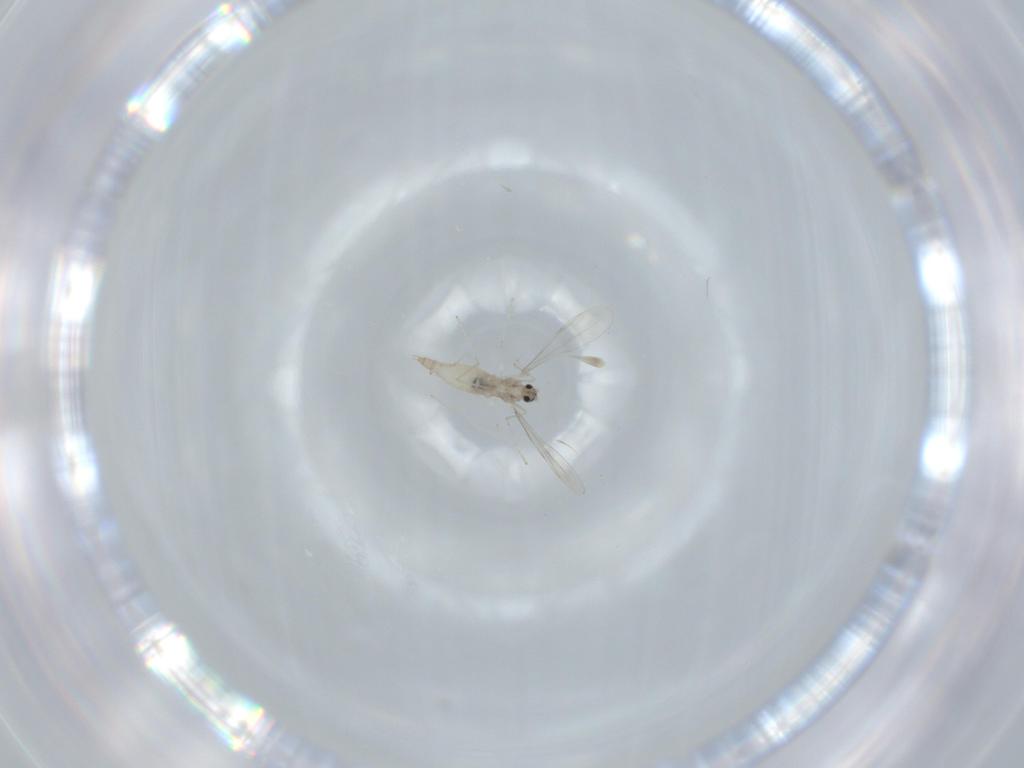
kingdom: Animalia
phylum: Arthropoda
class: Insecta
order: Diptera
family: Cecidomyiidae
